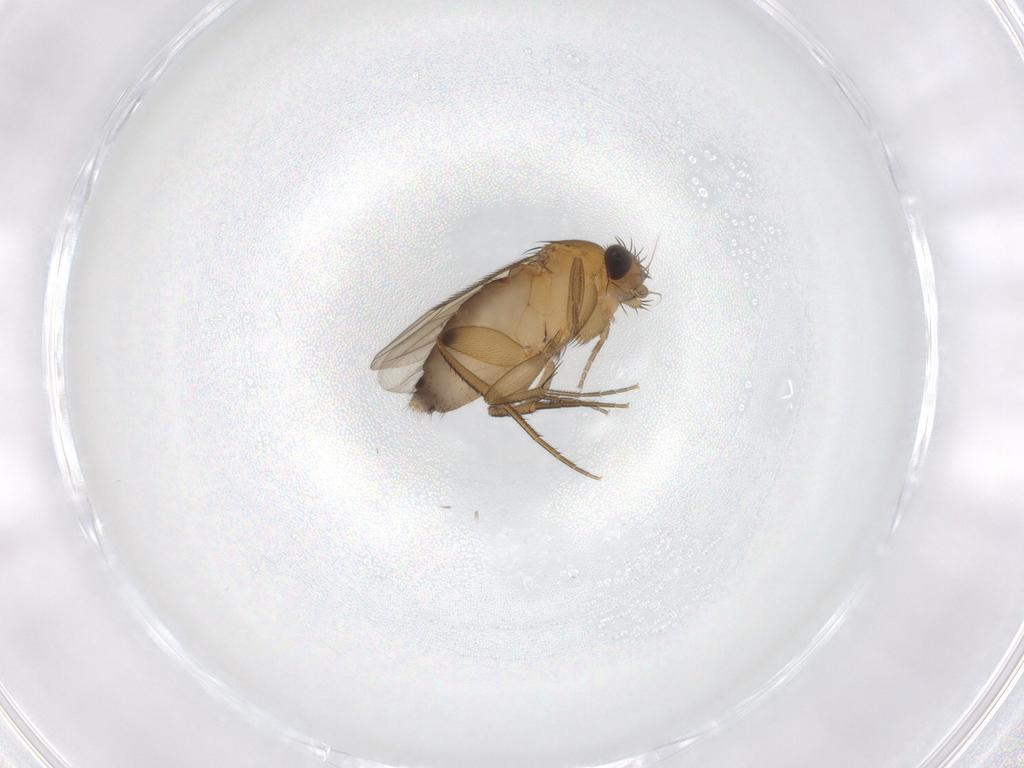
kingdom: Animalia
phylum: Arthropoda
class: Insecta
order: Diptera
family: Phoridae
